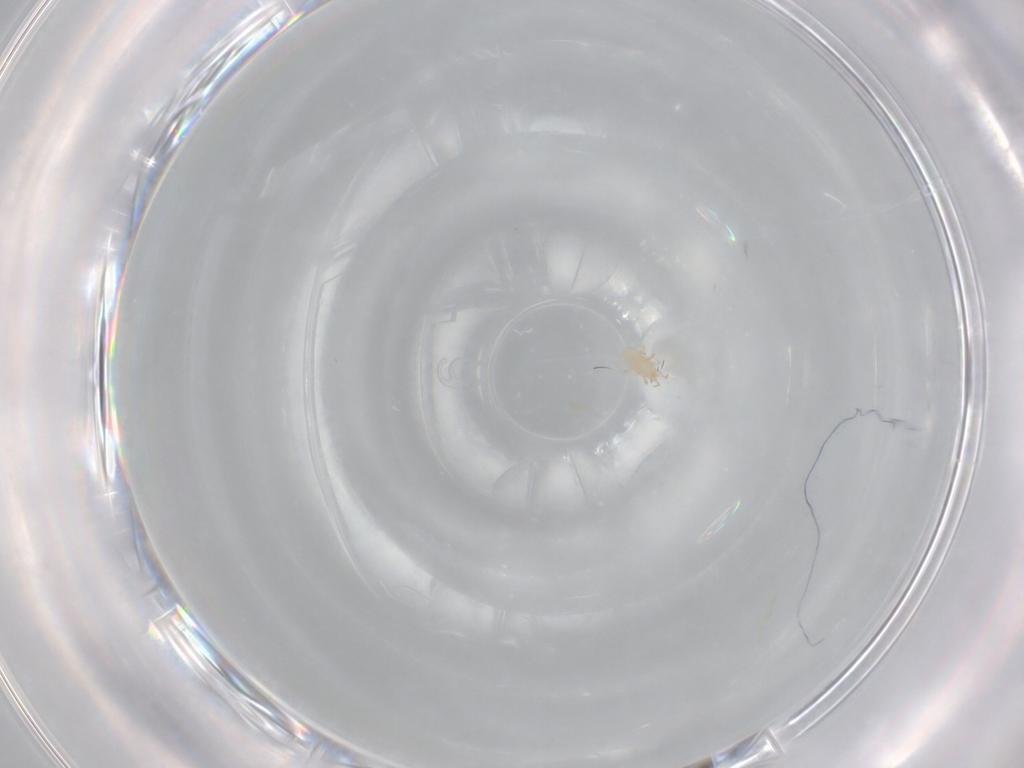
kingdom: Animalia
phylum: Arthropoda
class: Arachnida
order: Mesostigmata
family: Phytoseiidae
